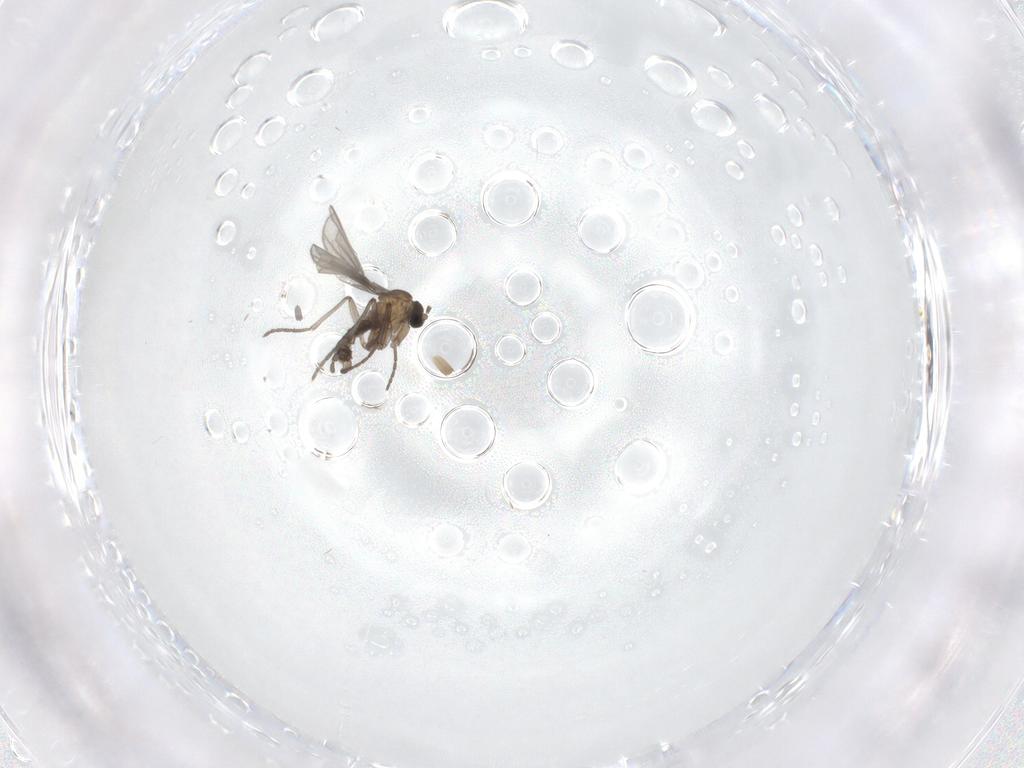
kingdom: Animalia
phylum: Arthropoda
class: Insecta
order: Diptera
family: Sciaridae
